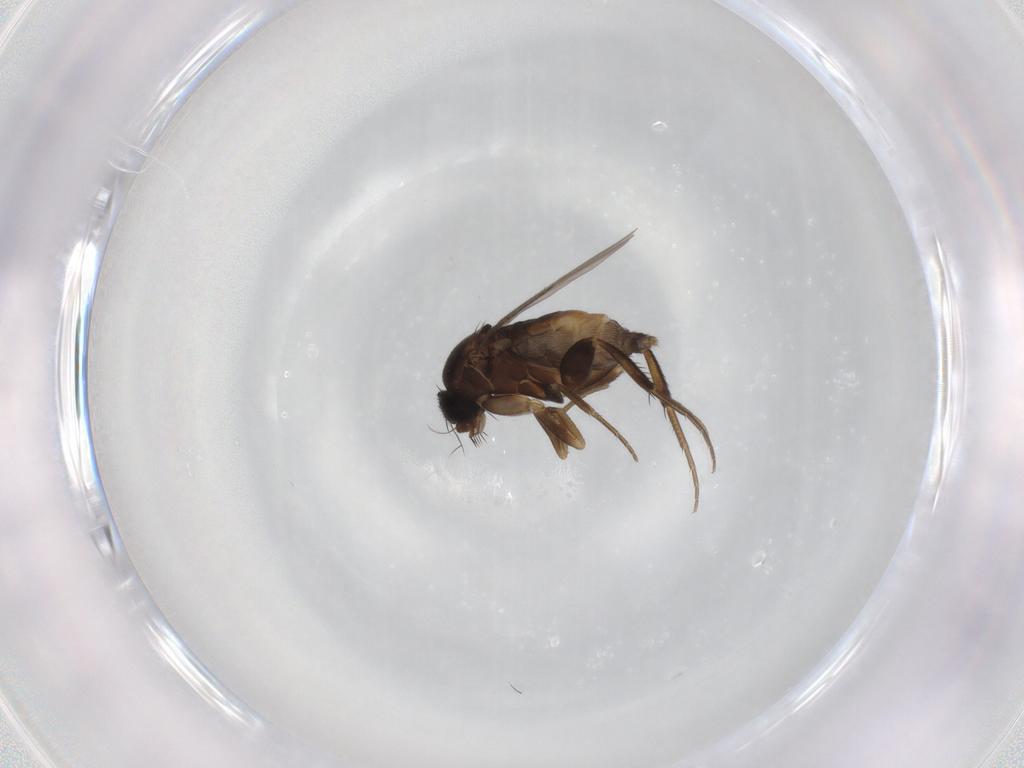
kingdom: Animalia
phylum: Arthropoda
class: Insecta
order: Diptera
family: Phoridae
